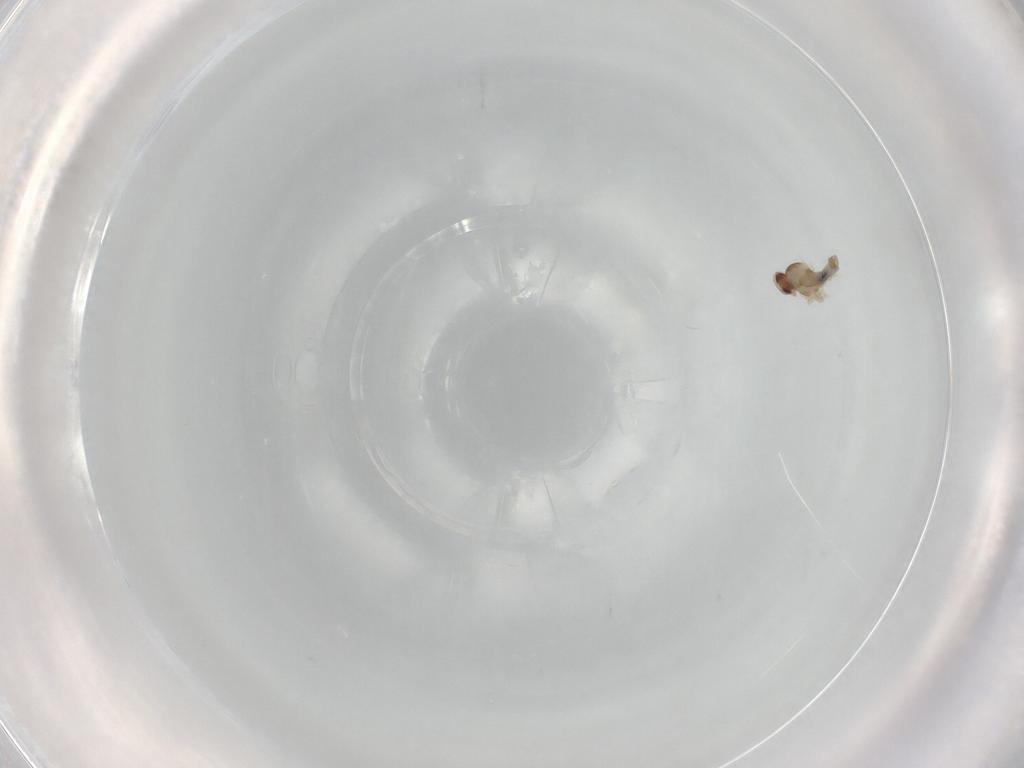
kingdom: Animalia
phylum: Arthropoda
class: Insecta
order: Diptera
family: Cecidomyiidae
